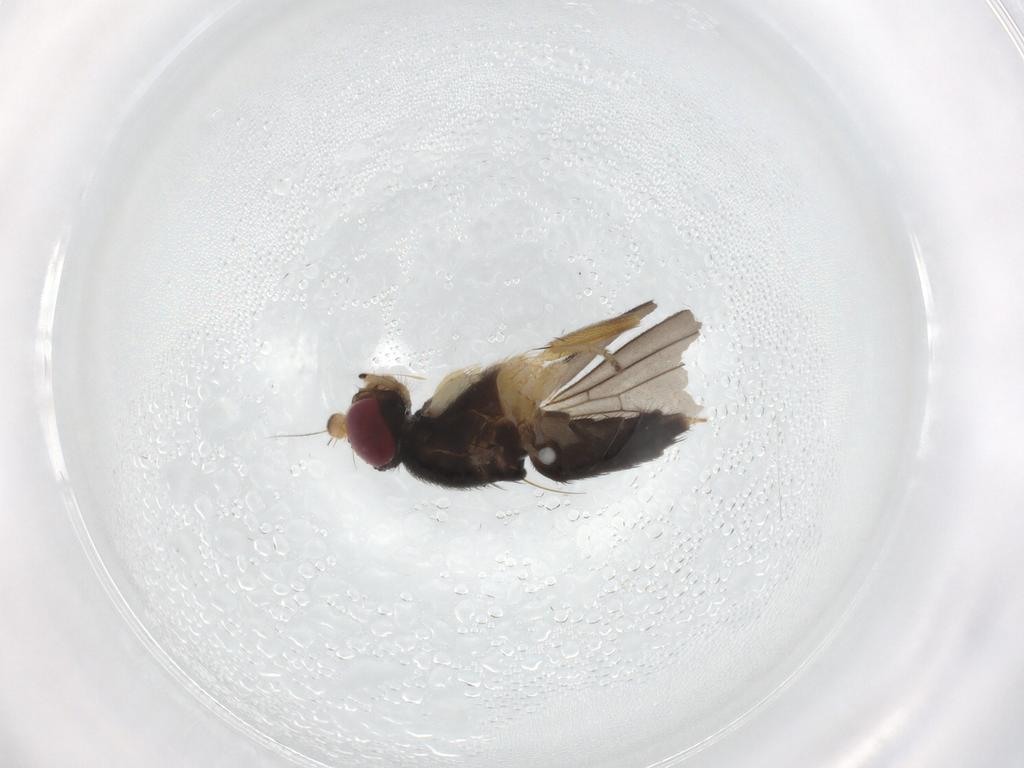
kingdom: Animalia
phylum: Arthropoda
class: Insecta
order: Diptera
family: Clusiidae
